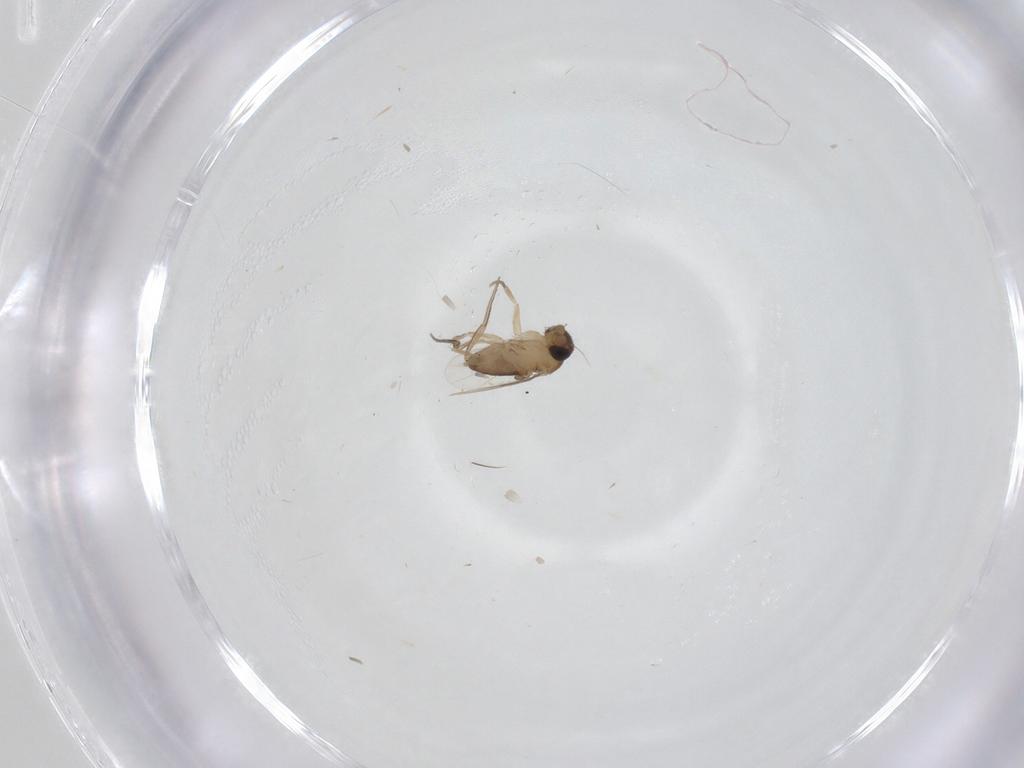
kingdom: Animalia
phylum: Arthropoda
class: Insecta
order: Diptera
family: Phoridae
